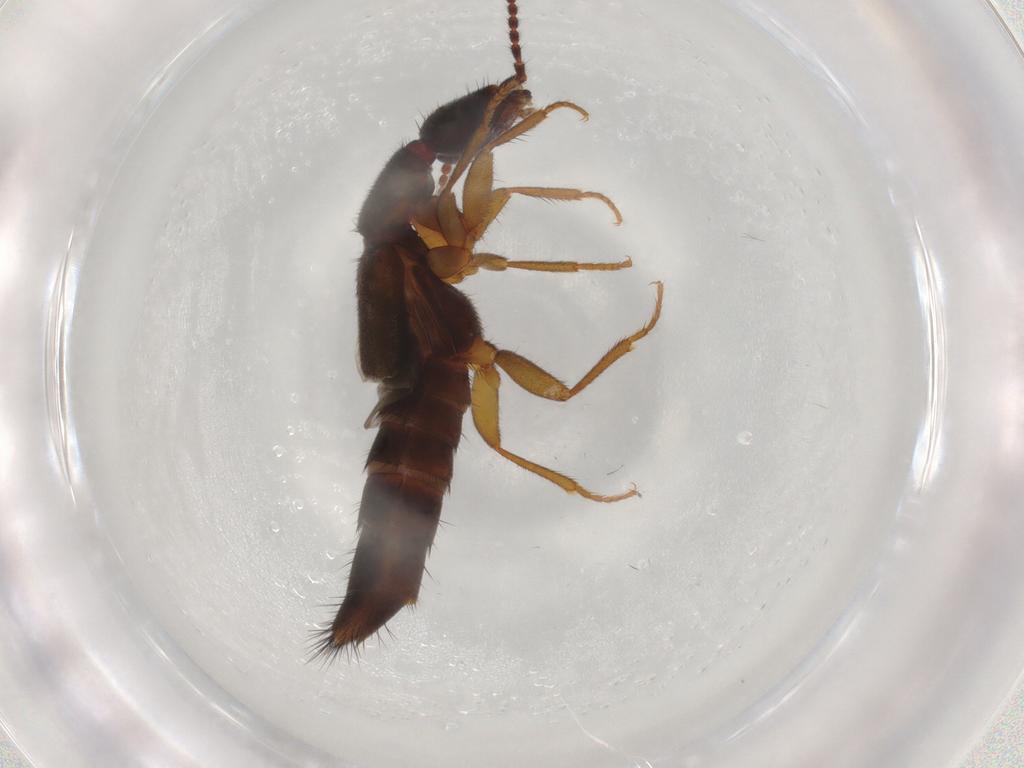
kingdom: Animalia
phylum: Arthropoda
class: Insecta
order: Coleoptera
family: Staphylinidae
